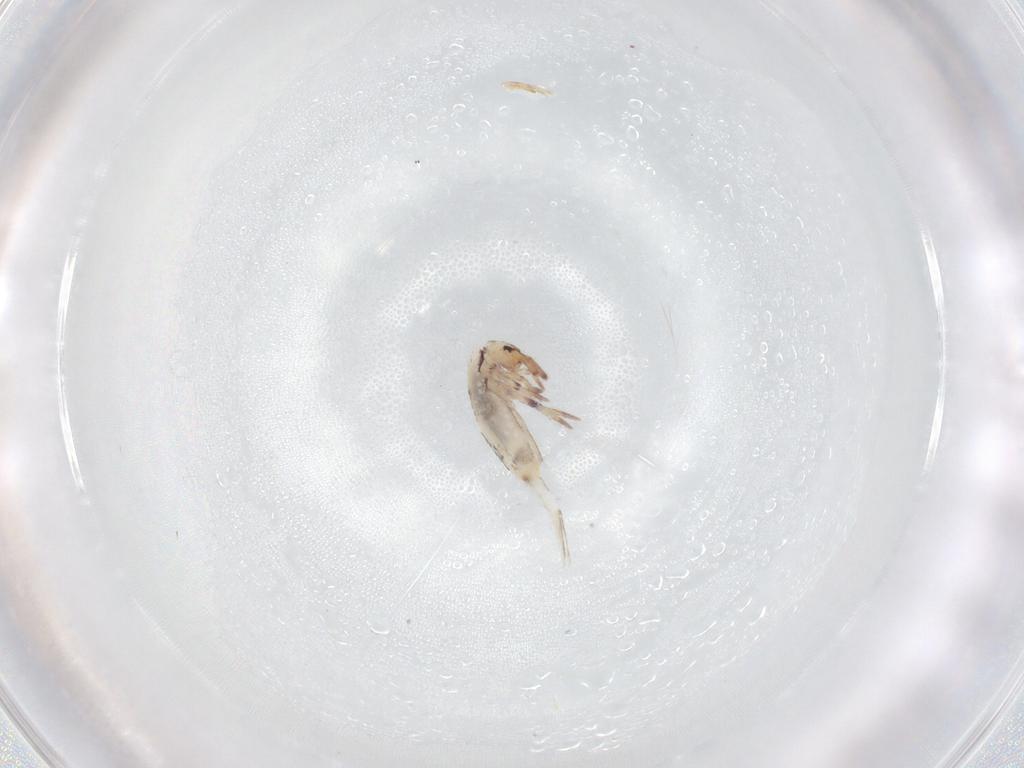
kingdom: Animalia
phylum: Arthropoda
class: Collembola
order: Entomobryomorpha
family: Entomobryidae
